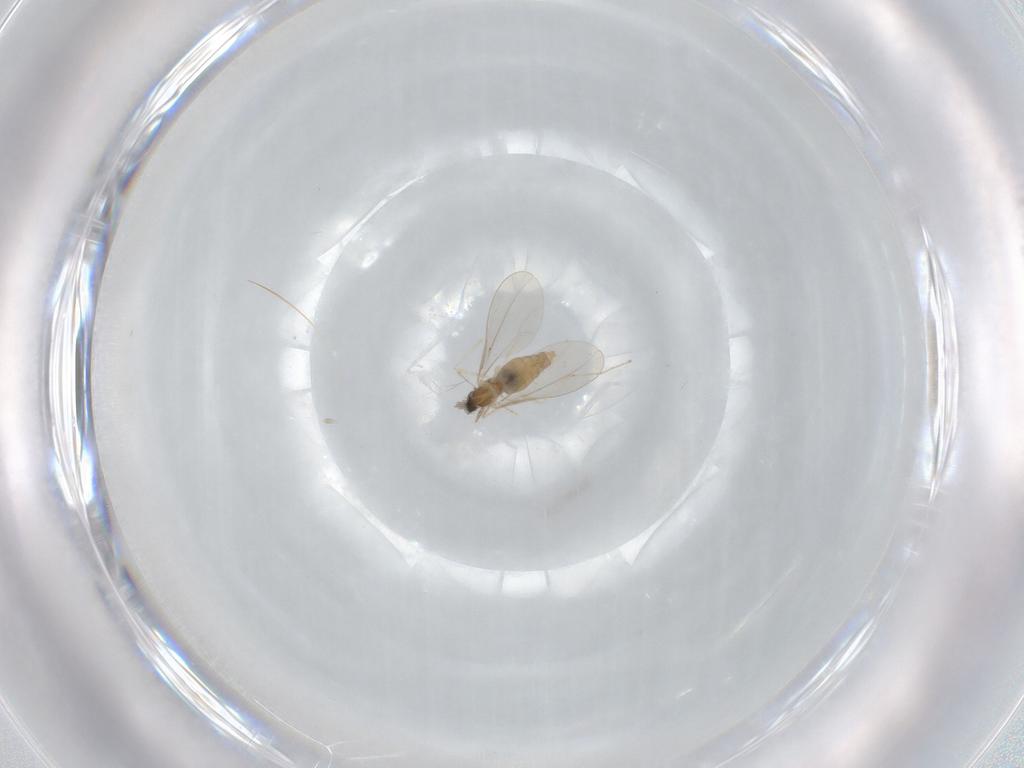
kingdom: Animalia
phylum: Arthropoda
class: Insecta
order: Diptera
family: Cecidomyiidae
